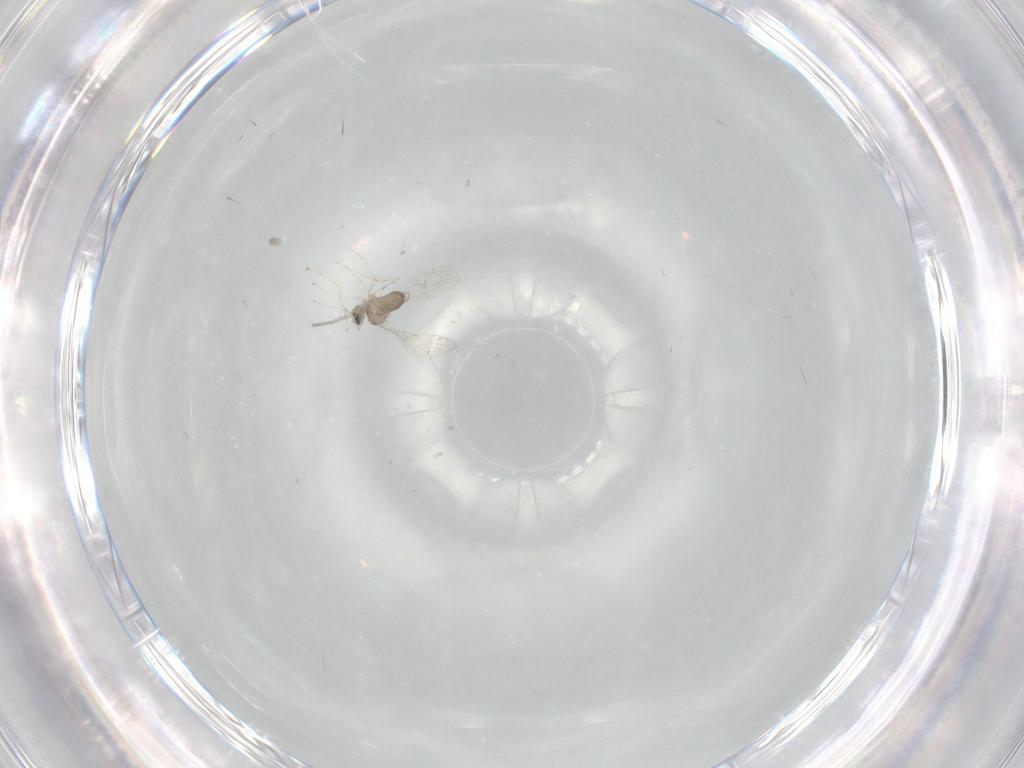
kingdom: Animalia
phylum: Arthropoda
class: Insecta
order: Diptera
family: Cecidomyiidae
